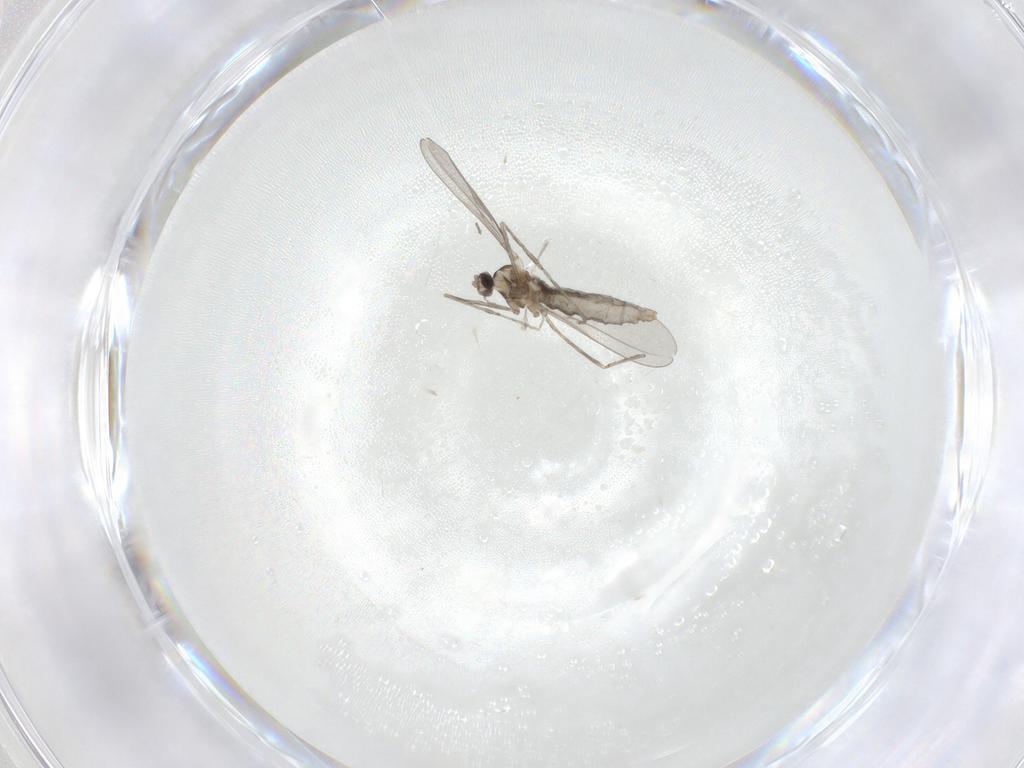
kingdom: Animalia
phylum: Arthropoda
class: Insecta
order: Diptera
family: Cecidomyiidae
